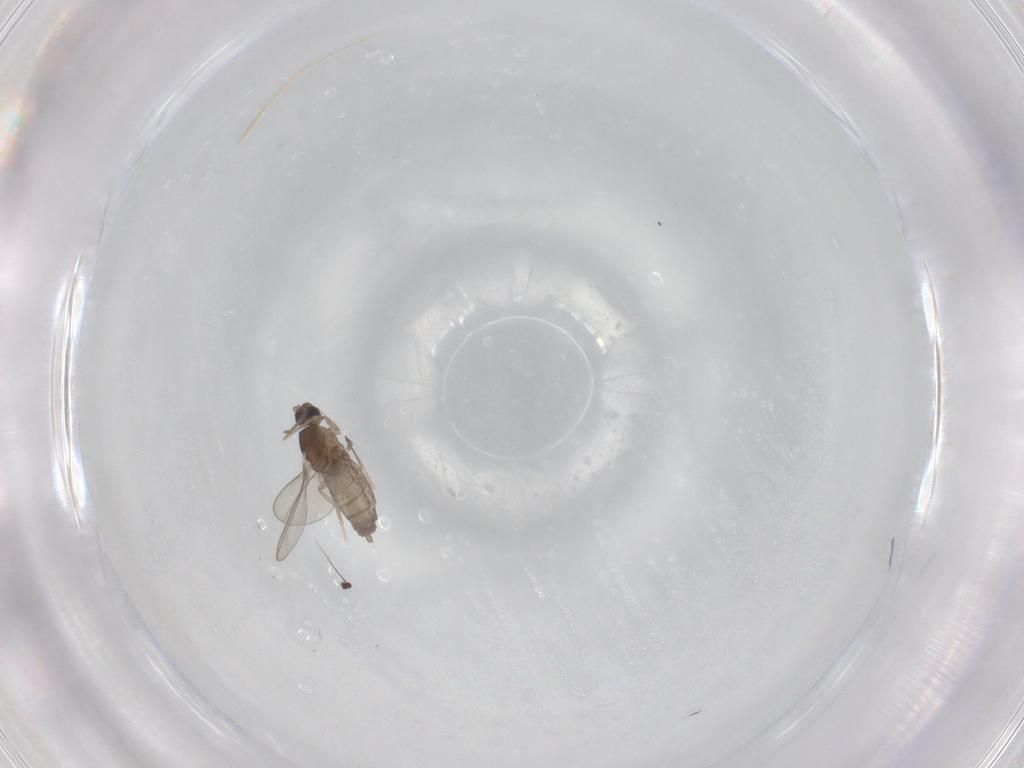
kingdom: Animalia
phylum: Arthropoda
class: Insecta
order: Diptera
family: Cecidomyiidae
